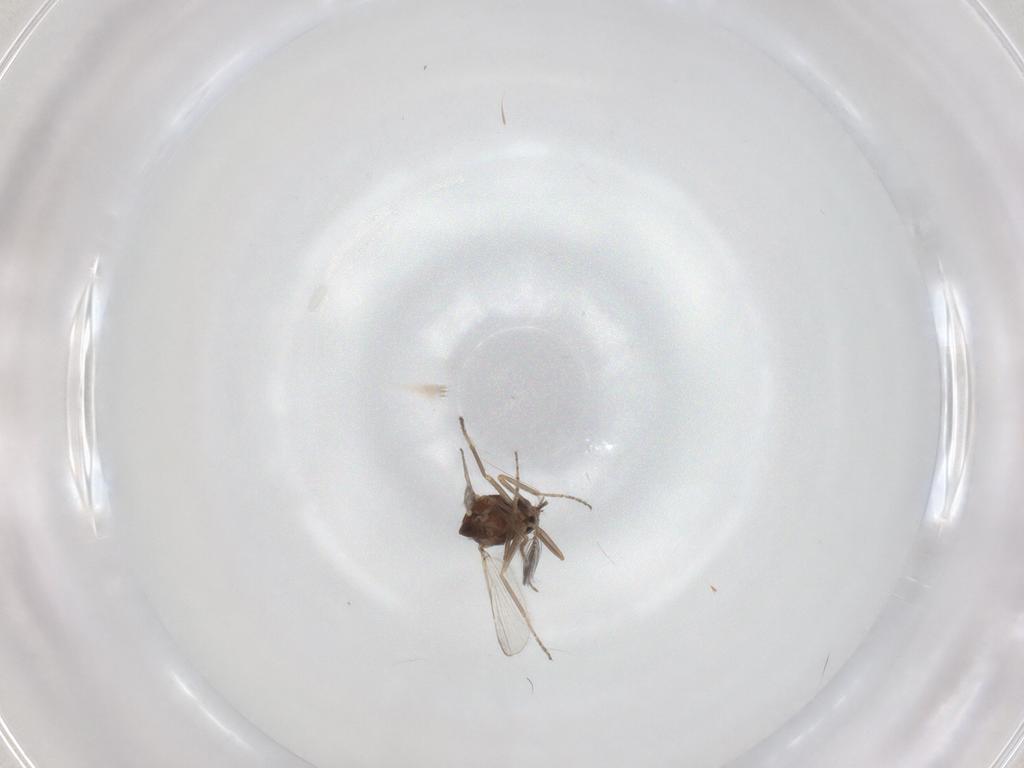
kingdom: Animalia
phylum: Arthropoda
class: Insecta
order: Diptera
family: Ceratopogonidae
